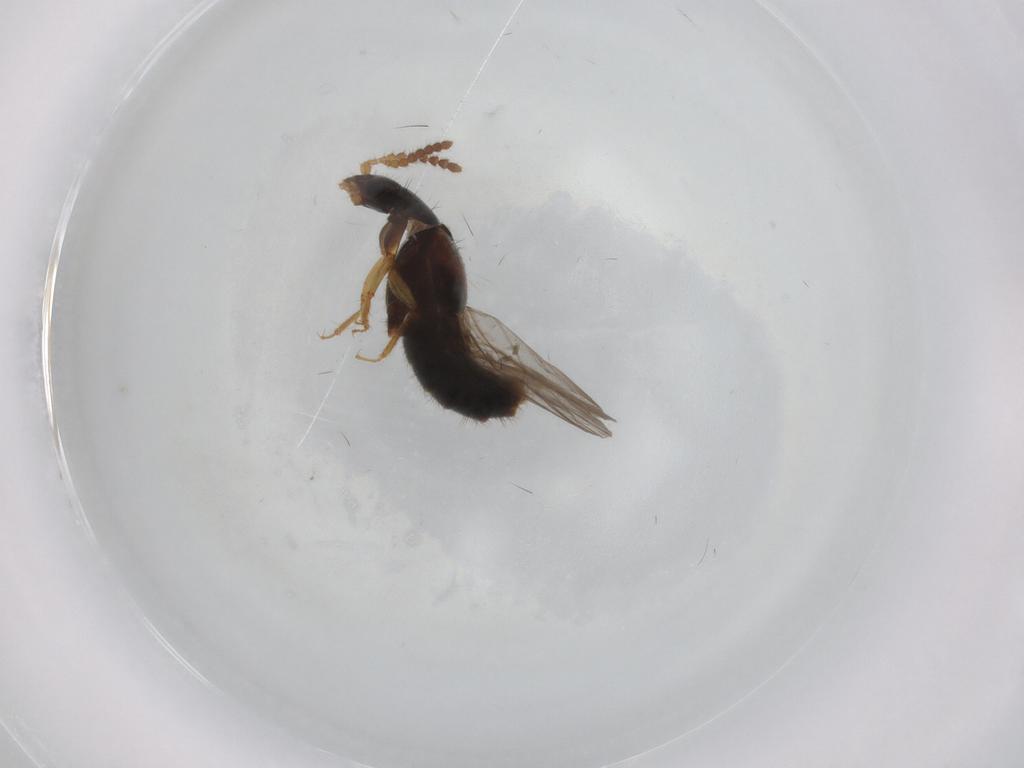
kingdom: Animalia
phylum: Arthropoda
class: Insecta
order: Coleoptera
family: Staphylinidae
